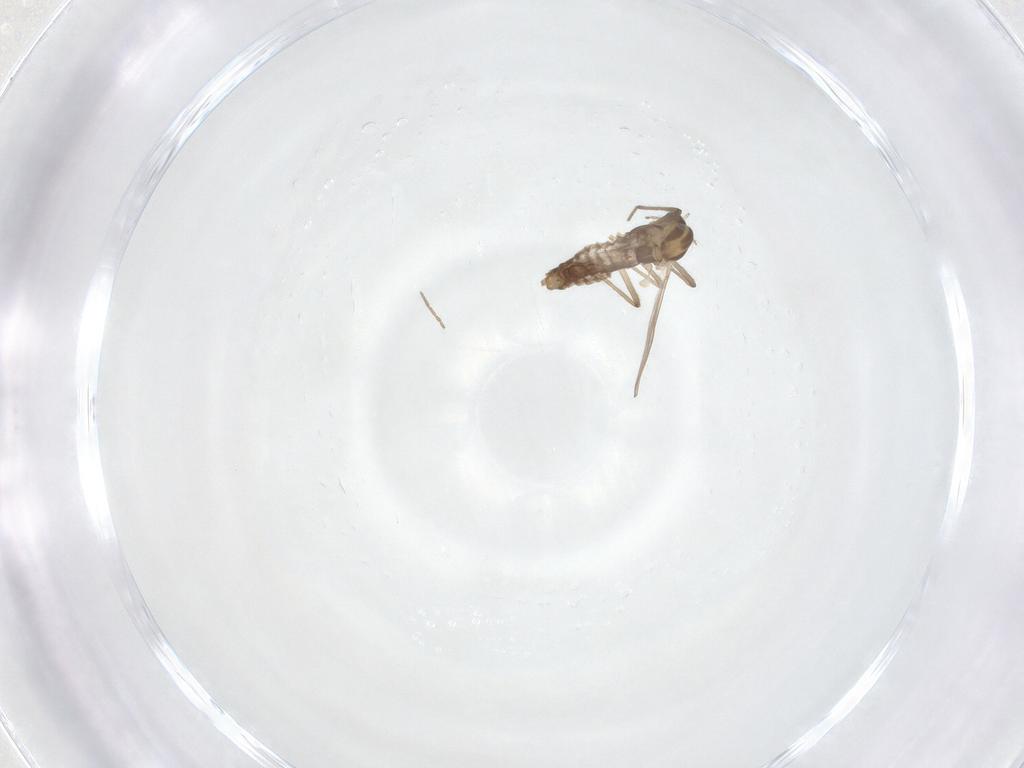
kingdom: Animalia
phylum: Arthropoda
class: Insecta
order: Diptera
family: Chironomidae
